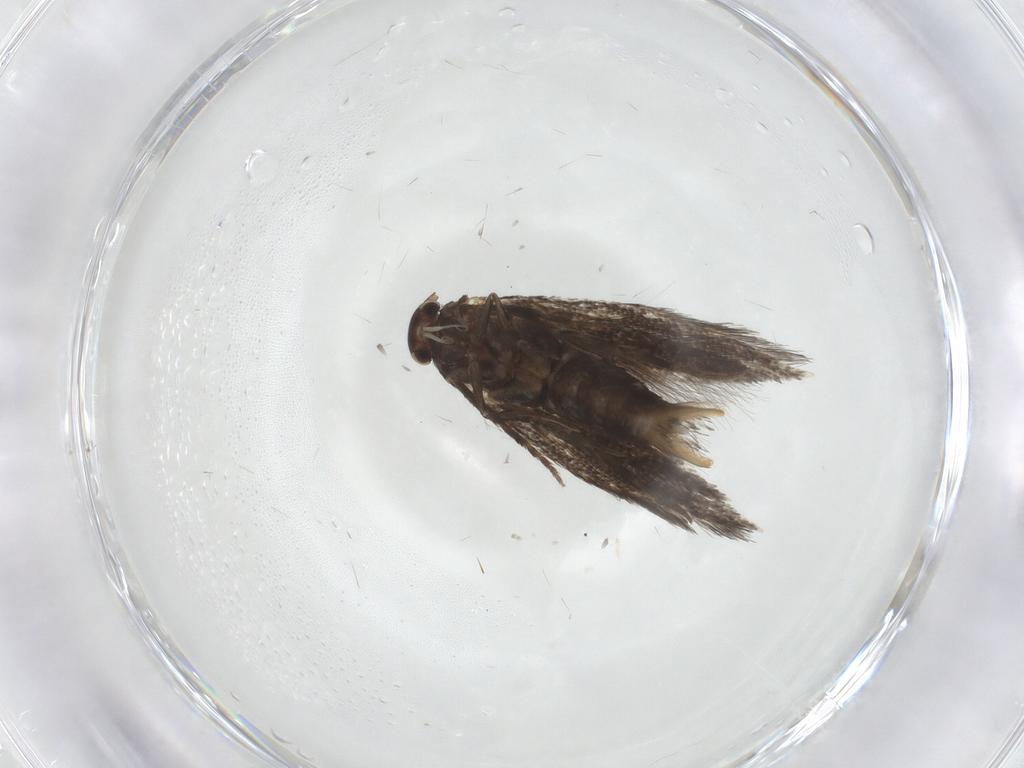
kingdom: Animalia
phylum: Arthropoda
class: Insecta
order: Lepidoptera
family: Elachistidae
